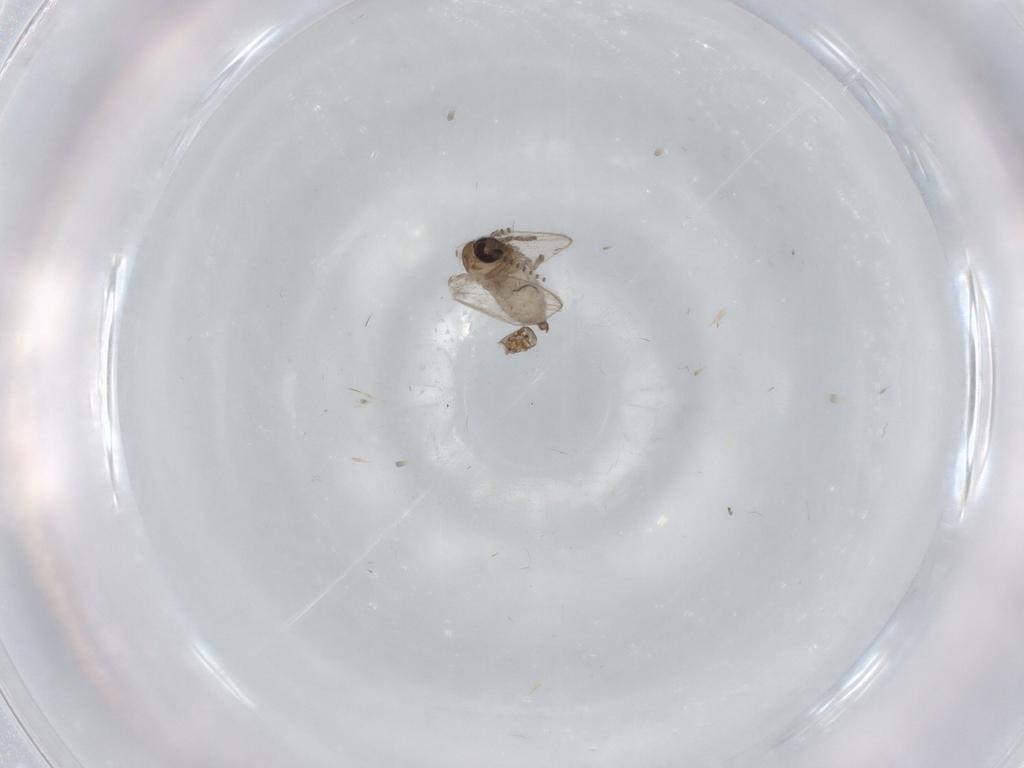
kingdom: Animalia
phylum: Arthropoda
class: Insecta
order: Diptera
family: Psychodidae
